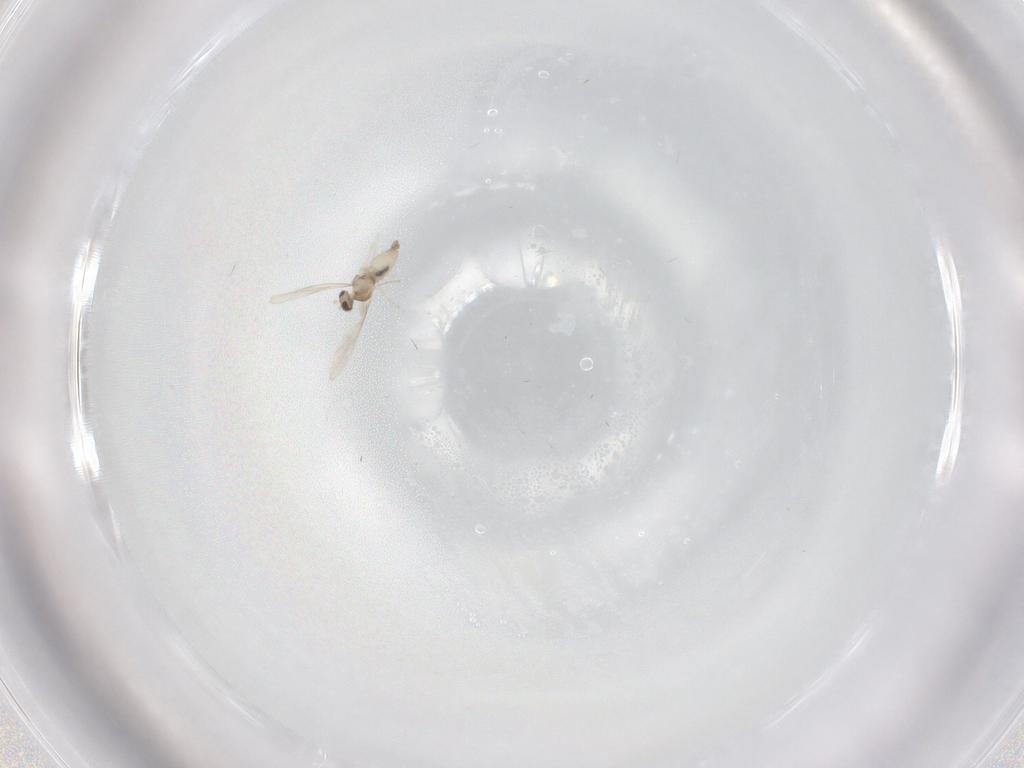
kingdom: Animalia
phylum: Arthropoda
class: Insecta
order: Diptera
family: Cecidomyiidae
